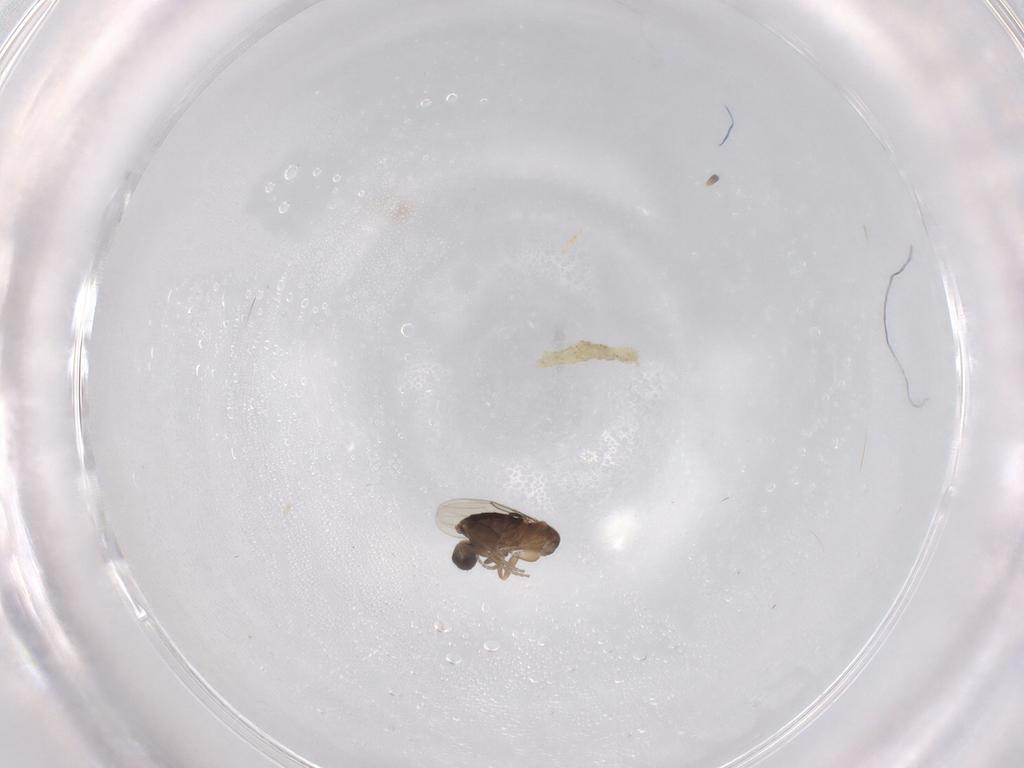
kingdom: Animalia
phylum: Arthropoda
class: Insecta
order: Diptera
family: Phoridae
